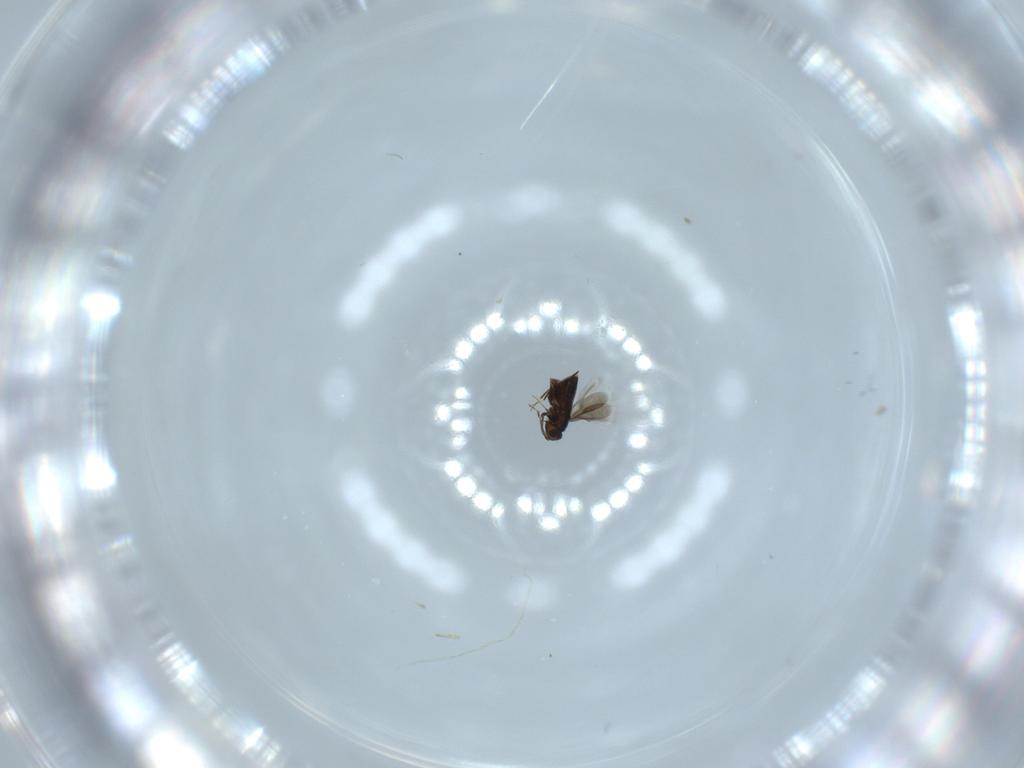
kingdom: Animalia
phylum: Arthropoda
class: Insecta
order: Hymenoptera
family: Signiphoridae
